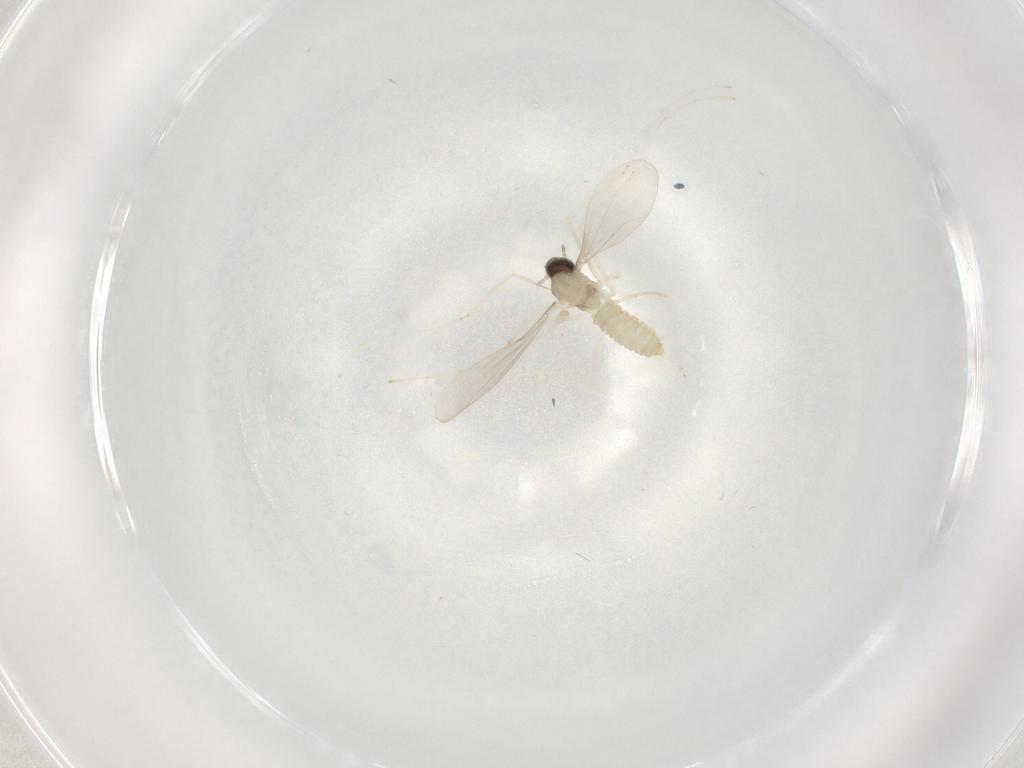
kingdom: Animalia
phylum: Arthropoda
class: Insecta
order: Diptera
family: Cecidomyiidae
